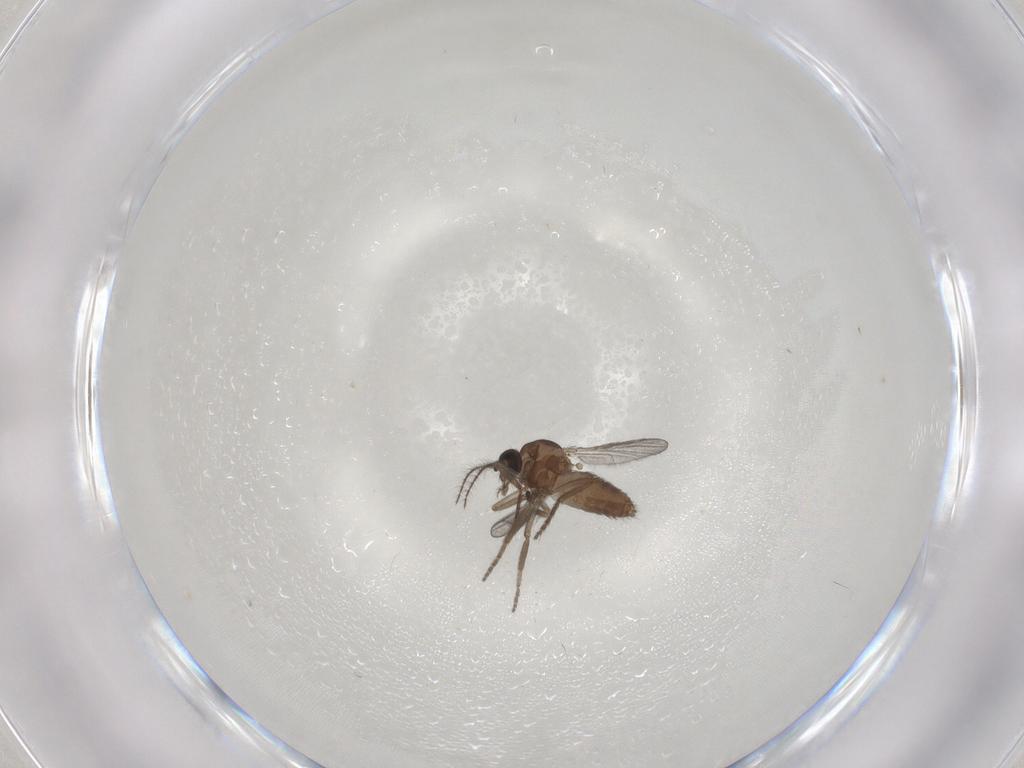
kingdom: Animalia
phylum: Arthropoda
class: Insecta
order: Diptera
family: Ceratopogonidae
